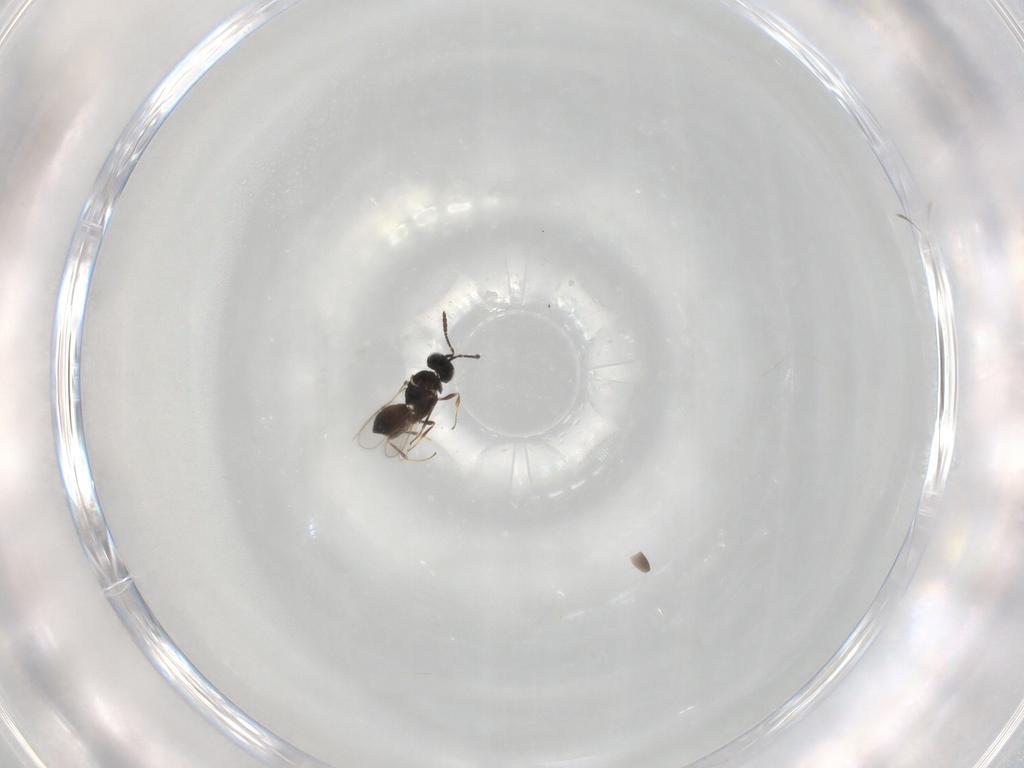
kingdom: Animalia
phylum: Arthropoda
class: Insecta
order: Hymenoptera
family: Scelionidae
